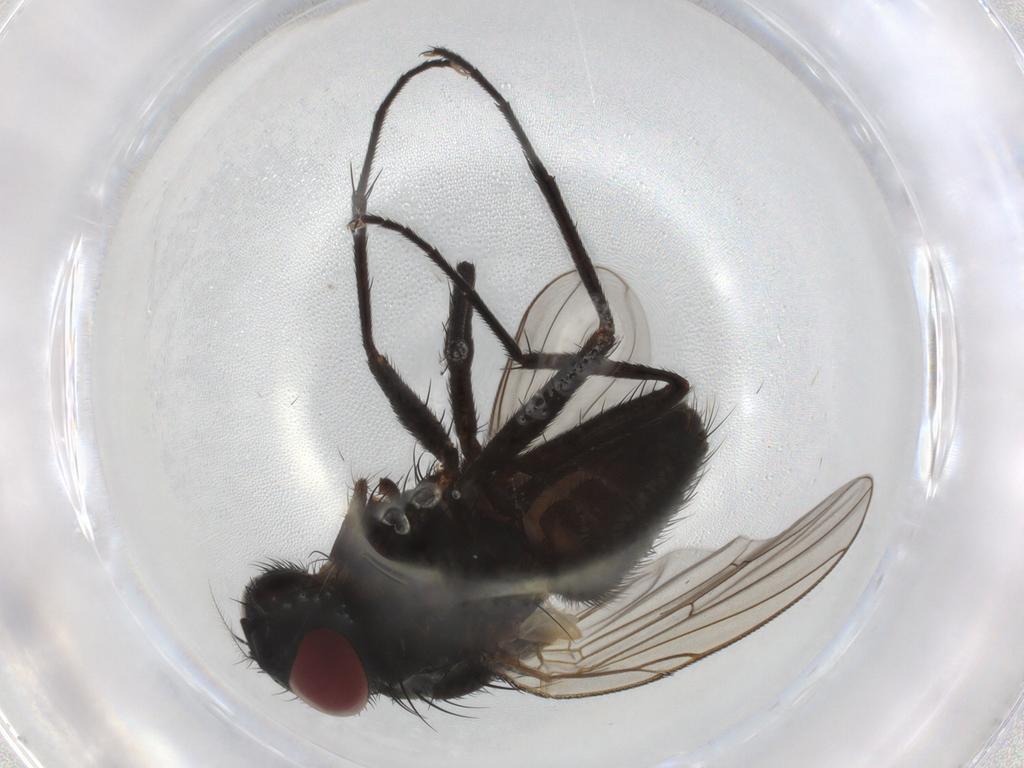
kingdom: Animalia
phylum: Arthropoda
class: Insecta
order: Diptera
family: Muscidae
